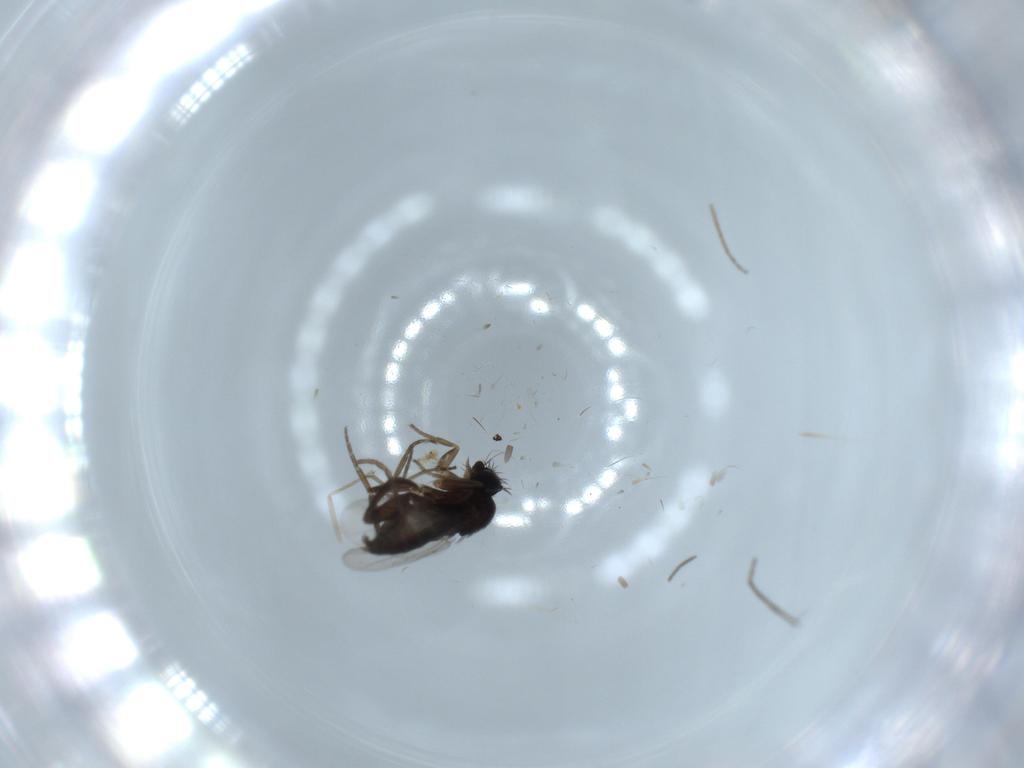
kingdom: Animalia
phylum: Arthropoda
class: Insecta
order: Diptera
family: Phoridae
